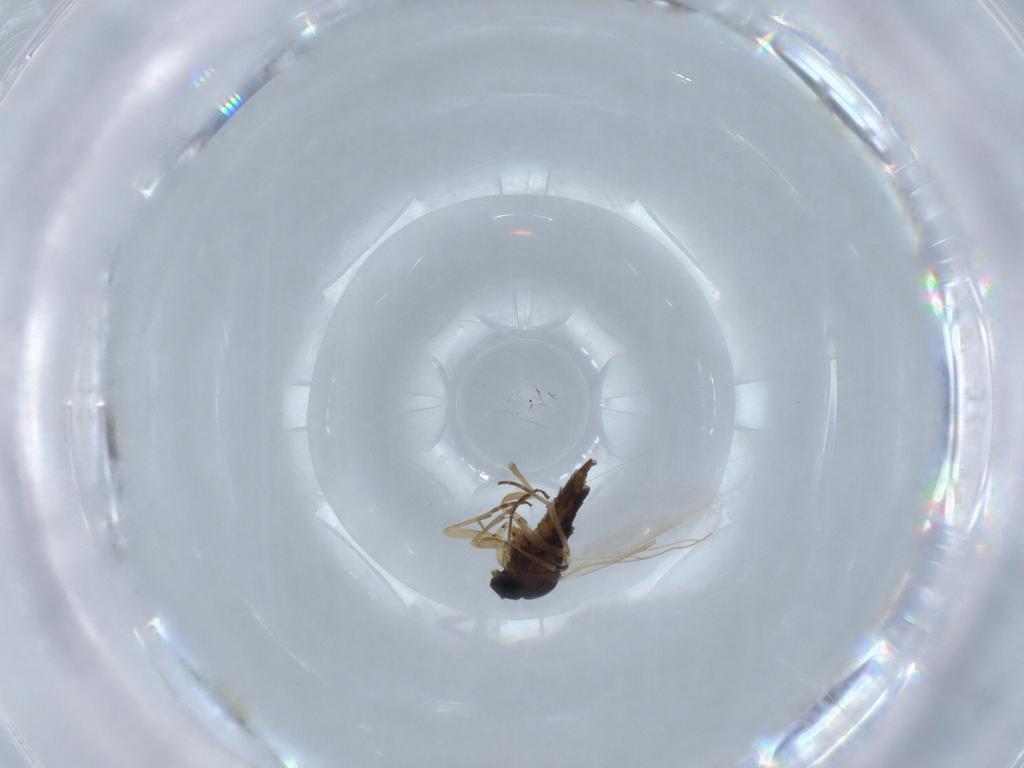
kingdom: Animalia
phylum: Arthropoda
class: Insecta
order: Diptera
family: Sciaridae
